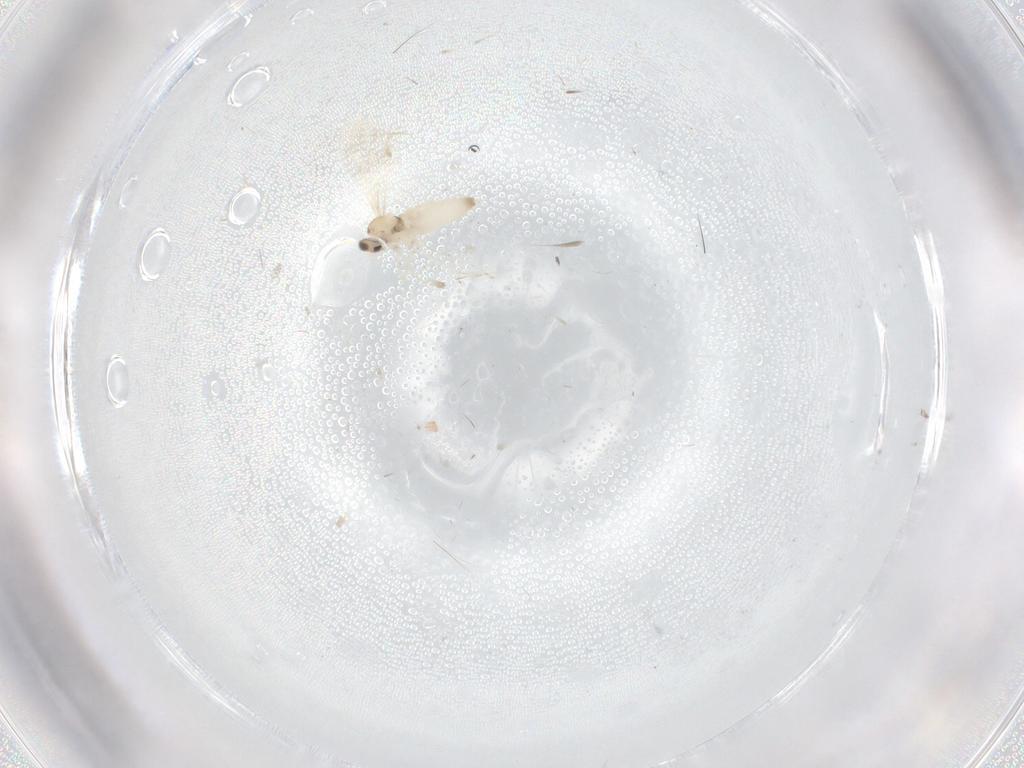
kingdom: Animalia
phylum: Arthropoda
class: Insecta
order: Diptera
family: Cecidomyiidae
